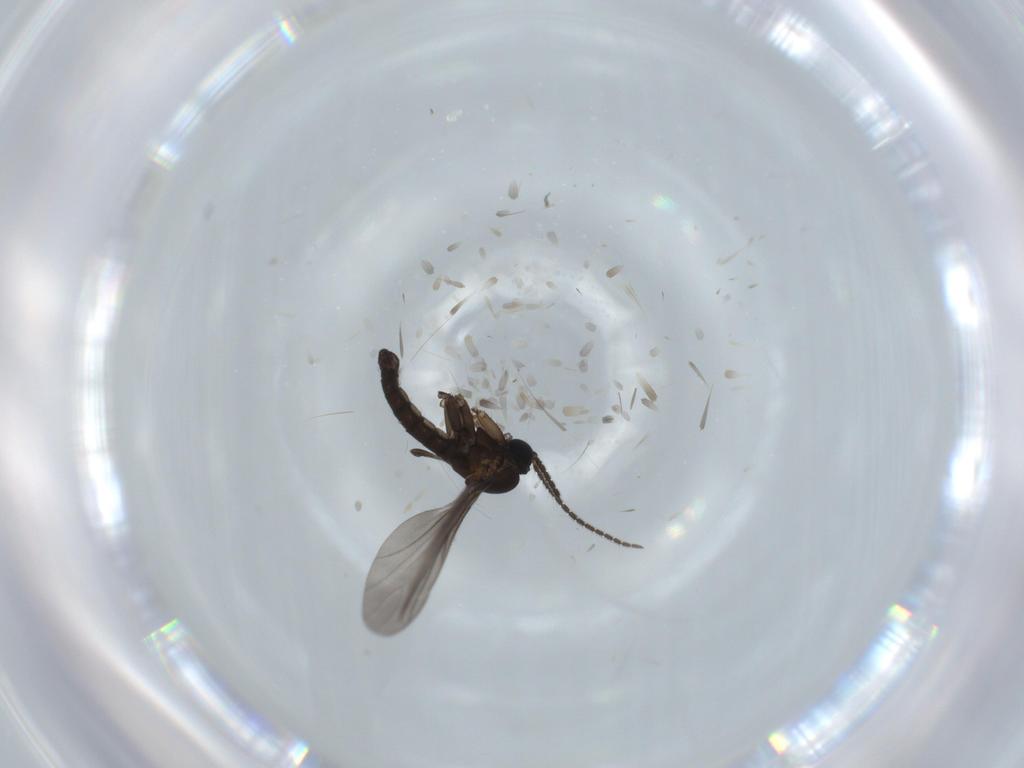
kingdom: Animalia
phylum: Arthropoda
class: Insecta
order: Diptera
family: Sciaridae
